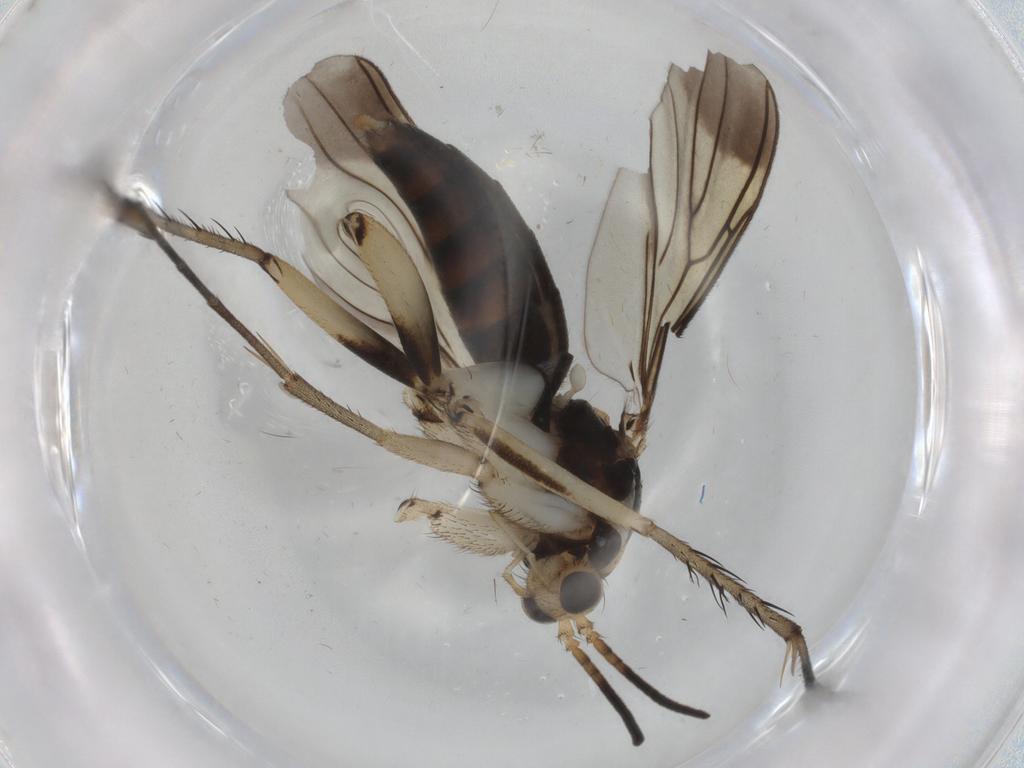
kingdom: Animalia
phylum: Arthropoda
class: Insecta
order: Diptera
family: Mycetophilidae
